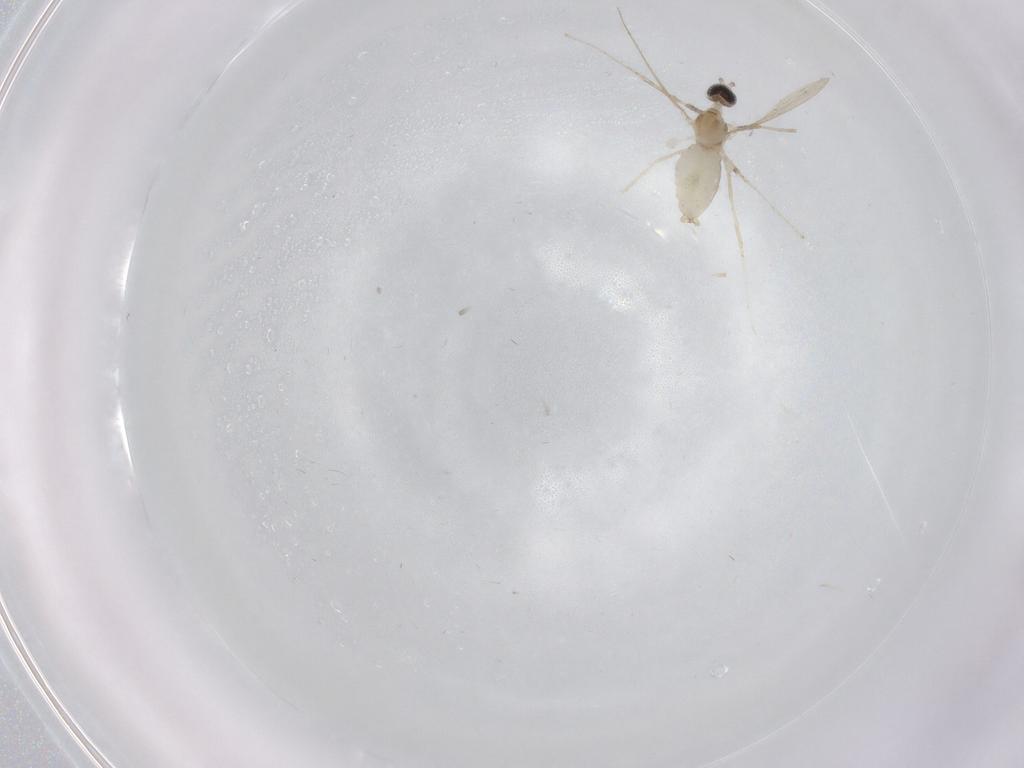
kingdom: Animalia
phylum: Arthropoda
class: Insecta
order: Diptera
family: Cecidomyiidae
